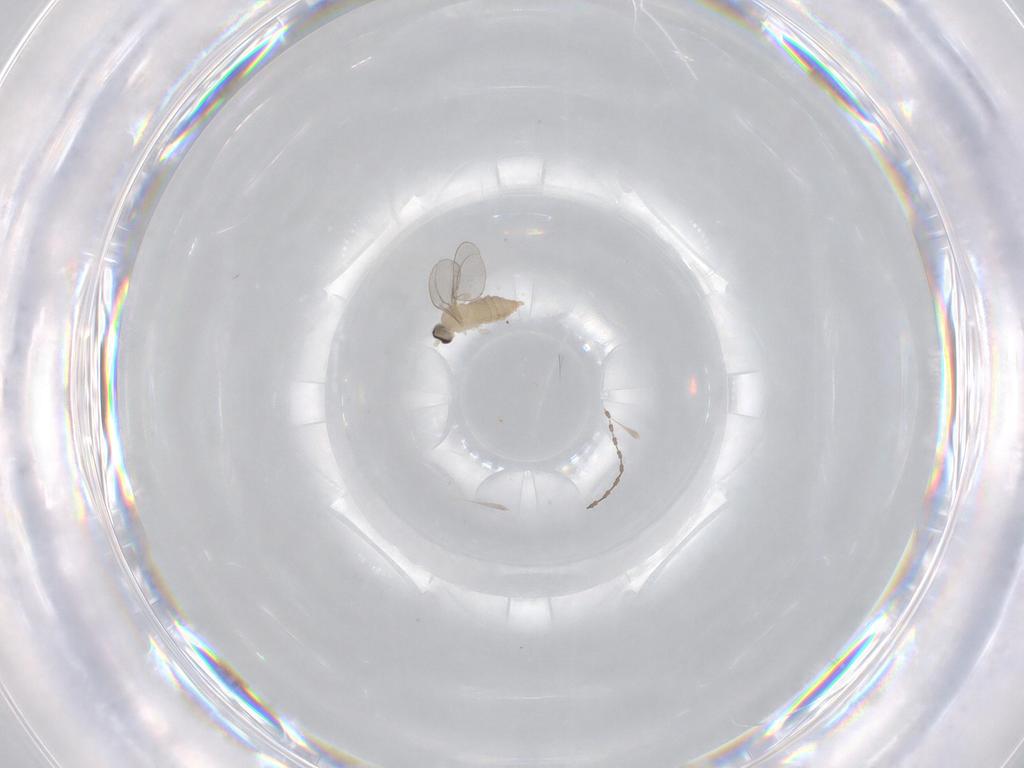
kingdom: Animalia
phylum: Arthropoda
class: Insecta
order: Diptera
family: Cecidomyiidae
